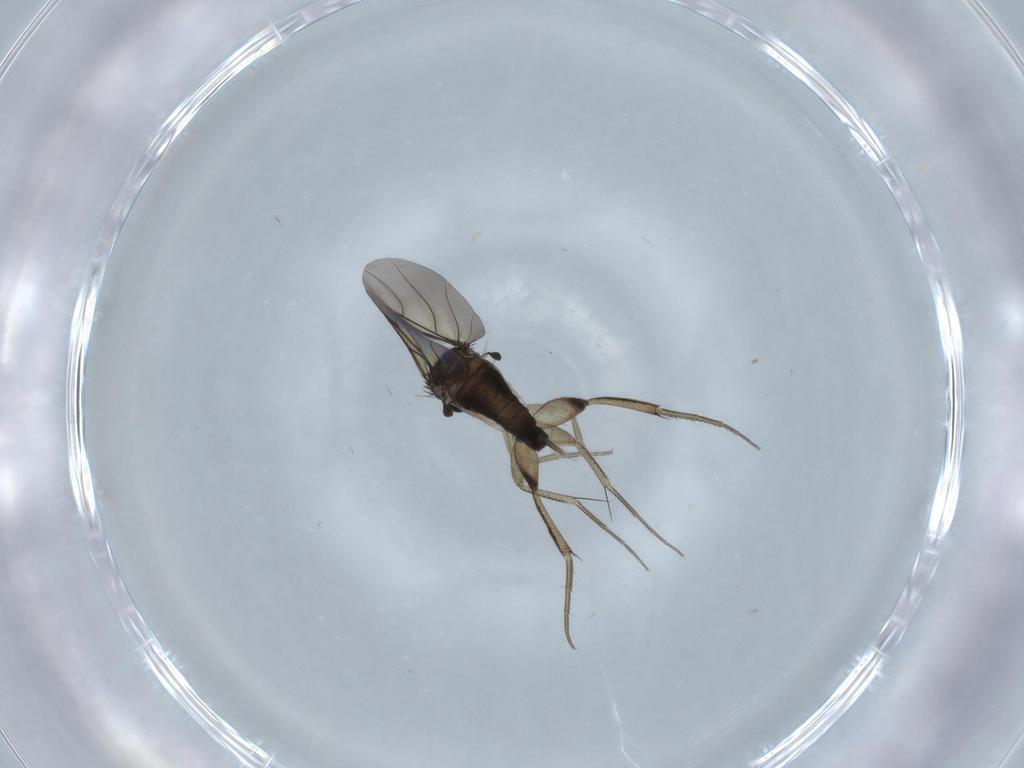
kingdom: Animalia
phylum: Arthropoda
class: Insecta
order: Diptera
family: Phoridae
